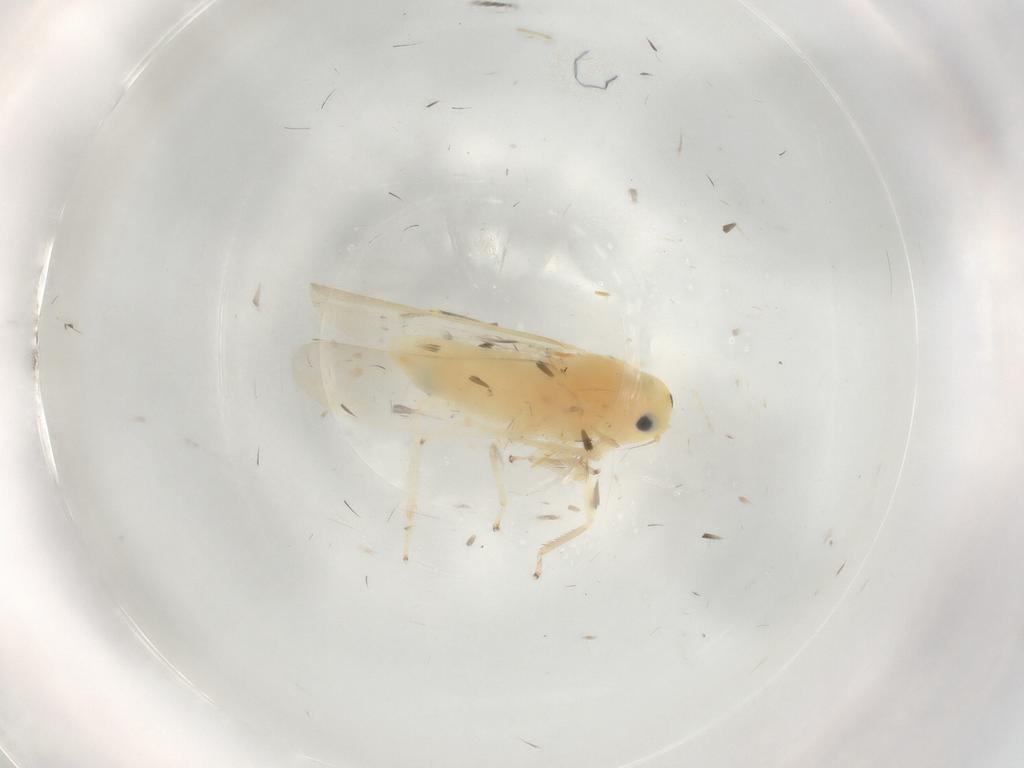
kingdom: Animalia
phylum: Arthropoda
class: Insecta
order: Hemiptera
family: Cicadellidae
